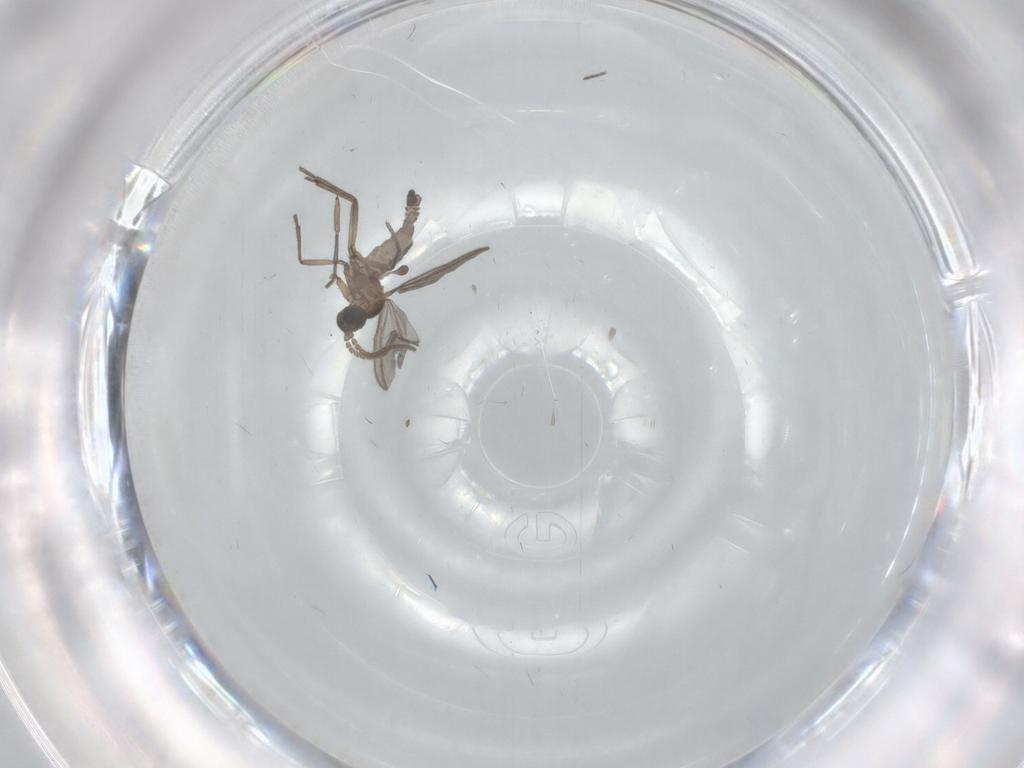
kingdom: Animalia
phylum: Arthropoda
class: Insecta
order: Diptera
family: Sciaridae
